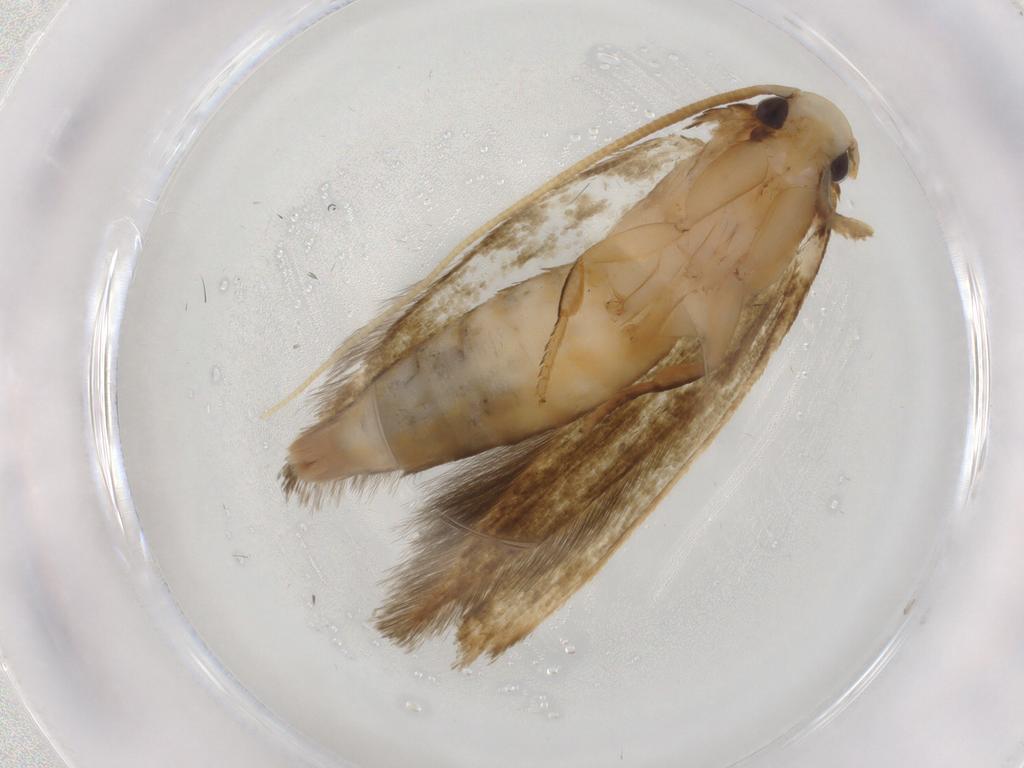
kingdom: Animalia
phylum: Arthropoda
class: Insecta
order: Lepidoptera
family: Tineidae
